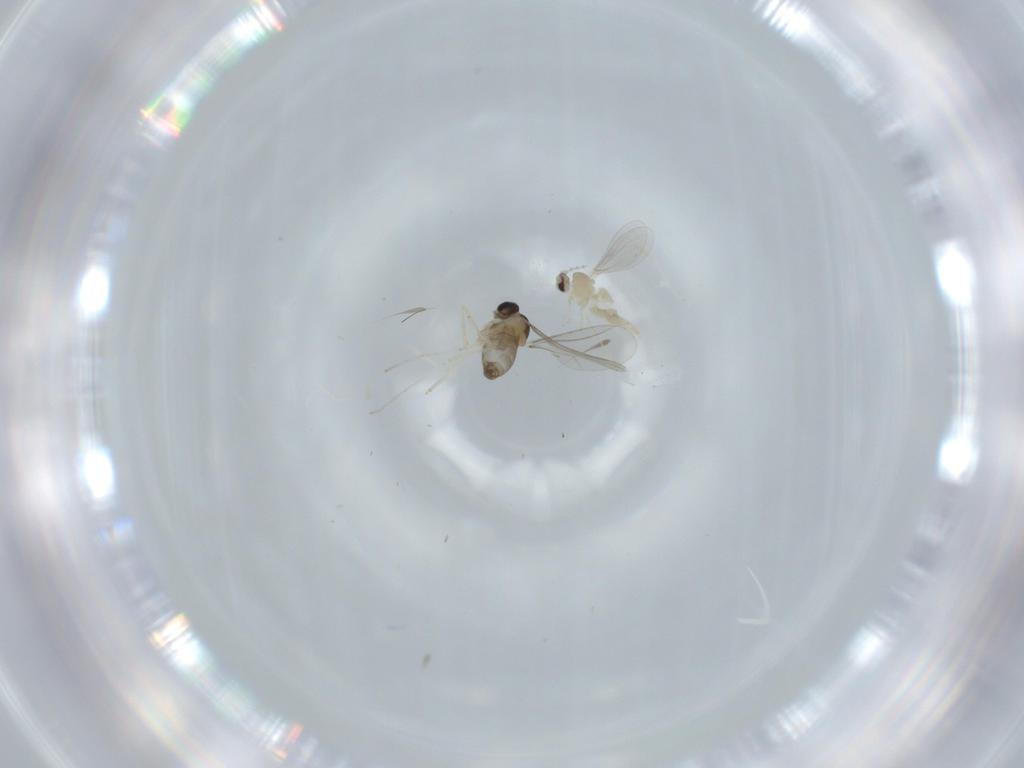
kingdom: Animalia
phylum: Arthropoda
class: Insecta
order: Diptera
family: Cecidomyiidae
